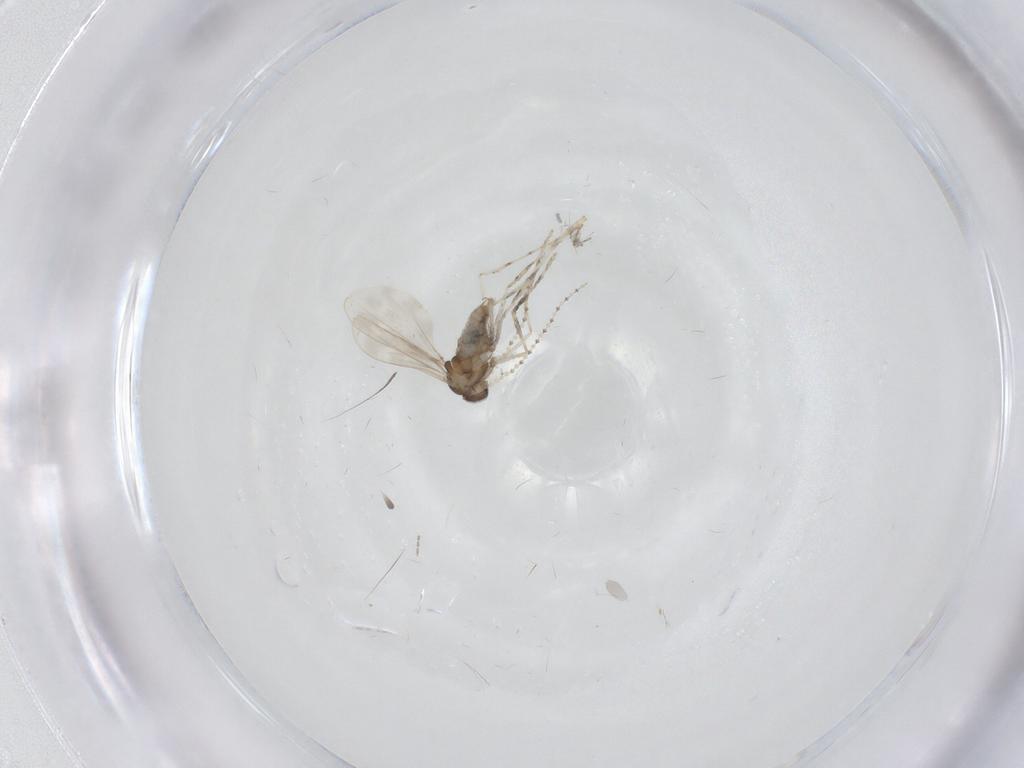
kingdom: Animalia
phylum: Arthropoda
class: Insecta
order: Diptera
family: Cecidomyiidae
